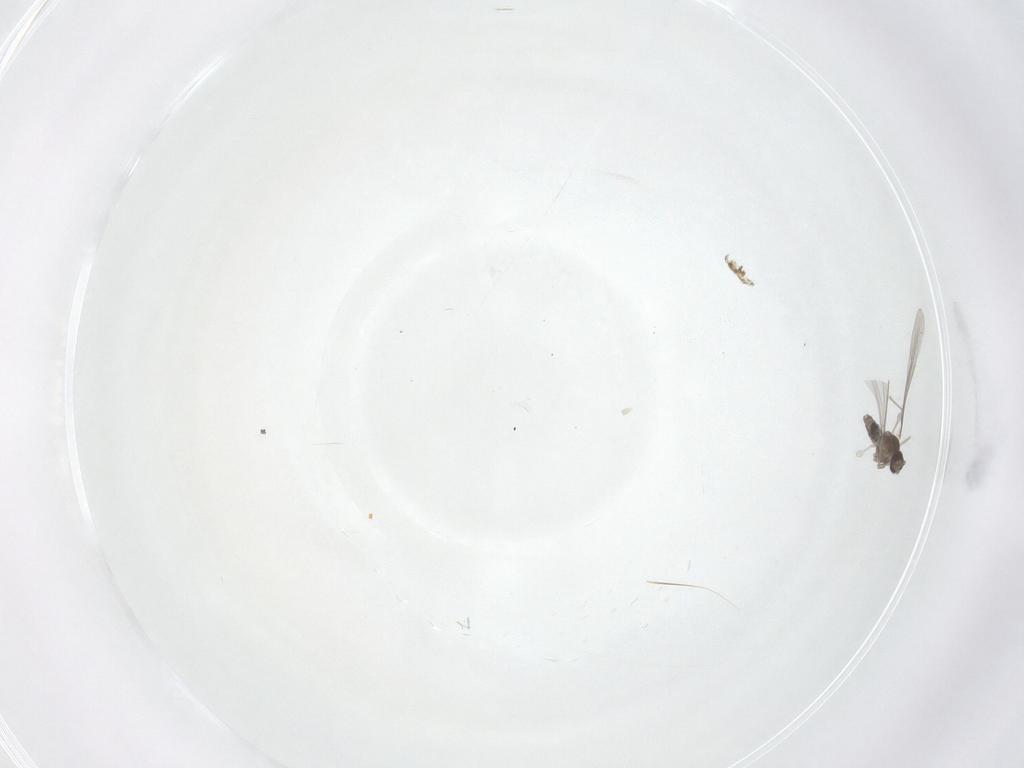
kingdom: Animalia
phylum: Arthropoda
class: Insecta
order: Diptera
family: Cecidomyiidae
